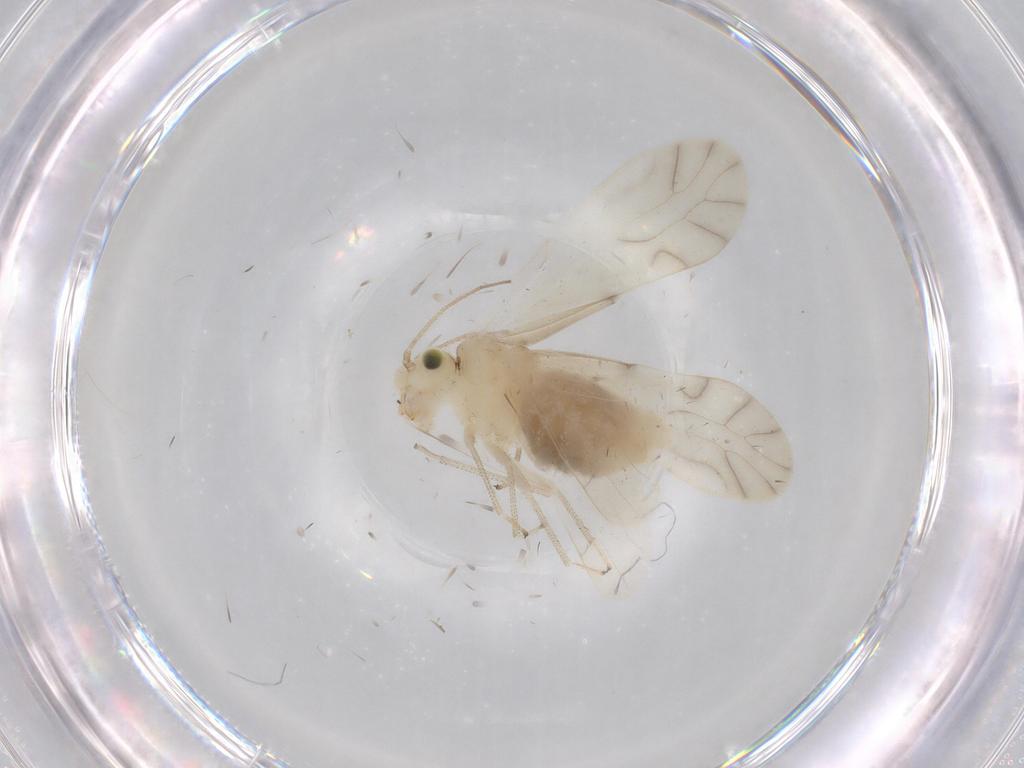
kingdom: Animalia
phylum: Arthropoda
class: Insecta
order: Psocodea
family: Caeciliusidae
